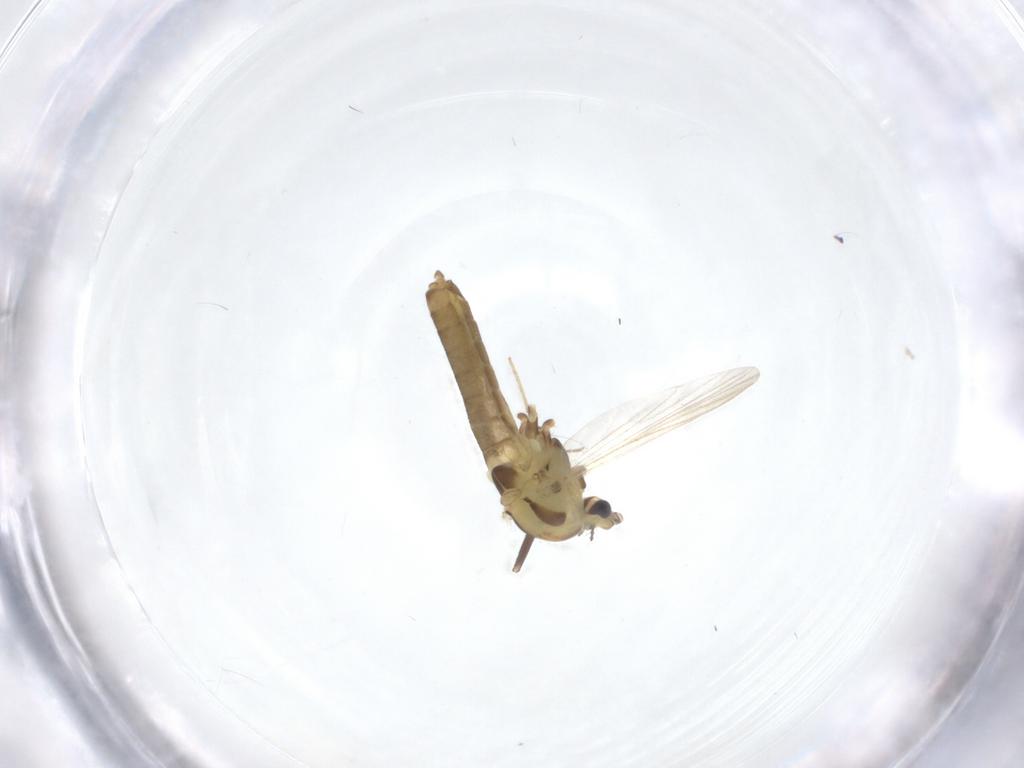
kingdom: Animalia
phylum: Arthropoda
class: Insecta
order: Diptera
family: Chironomidae
